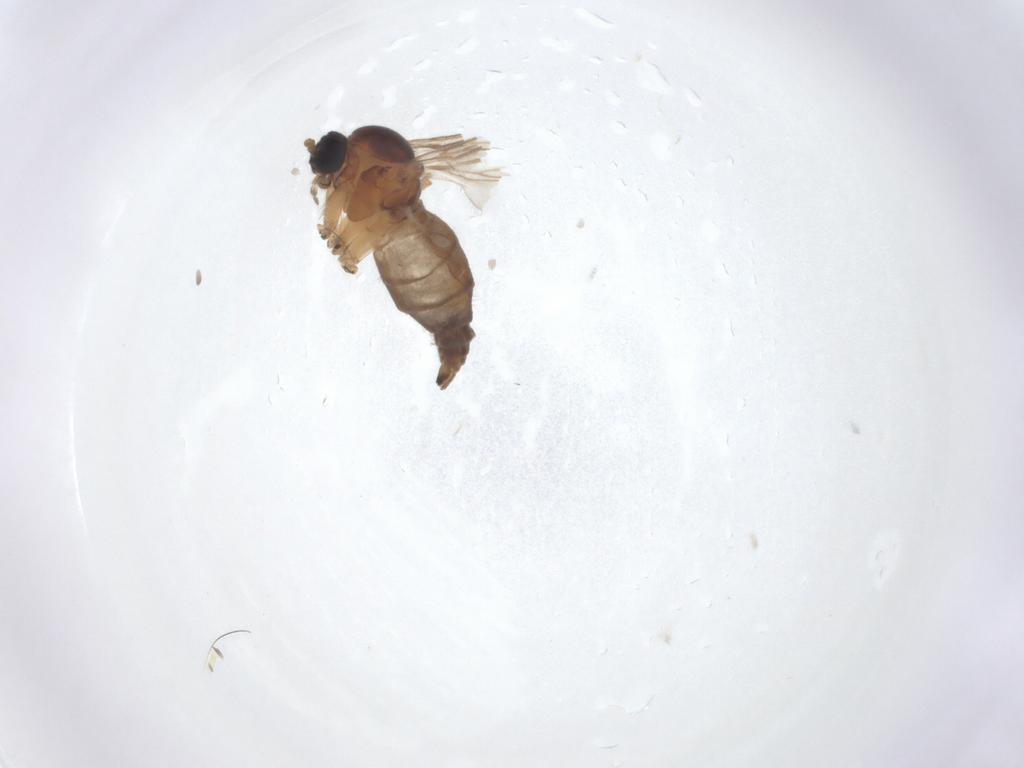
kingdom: Animalia
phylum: Arthropoda
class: Insecta
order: Diptera
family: Sciaridae
